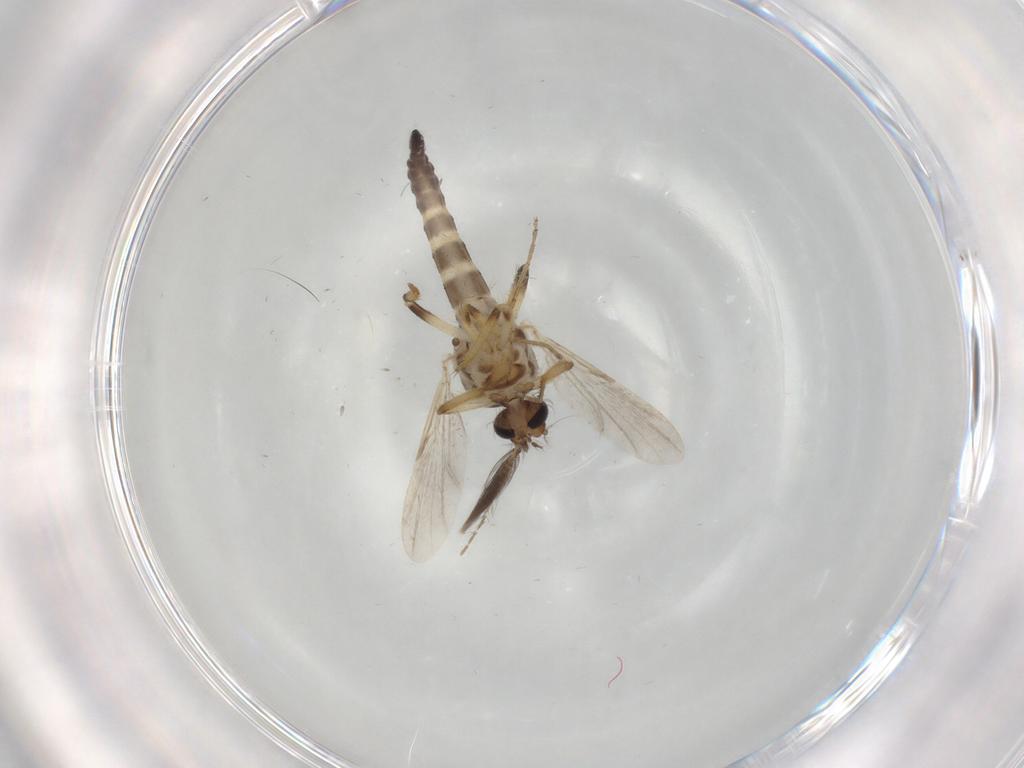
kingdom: Animalia
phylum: Arthropoda
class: Insecta
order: Diptera
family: Ceratopogonidae
